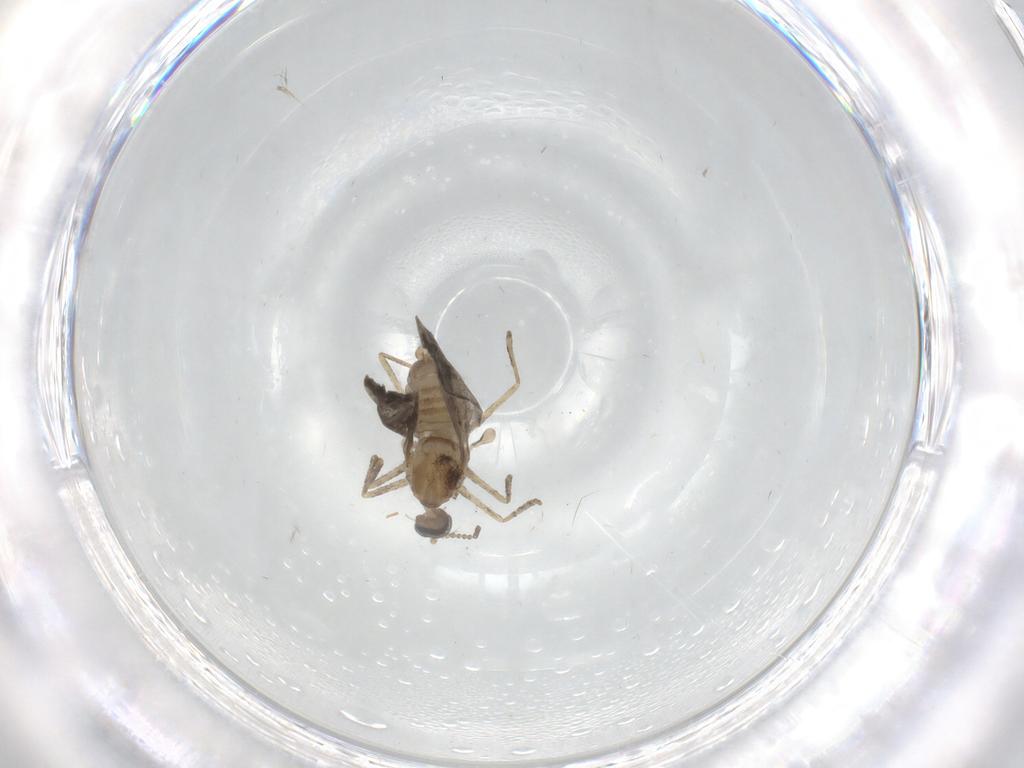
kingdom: Animalia
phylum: Arthropoda
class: Insecta
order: Diptera
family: Cecidomyiidae
